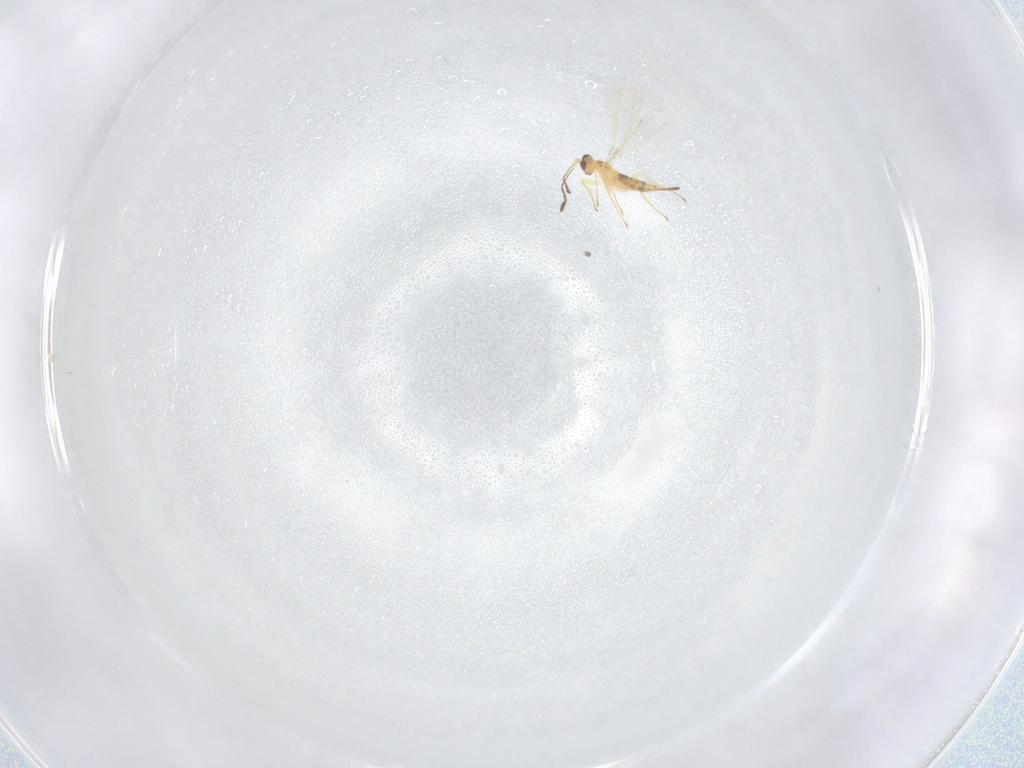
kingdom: Animalia
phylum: Arthropoda
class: Insecta
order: Hymenoptera
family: Mymaridae
